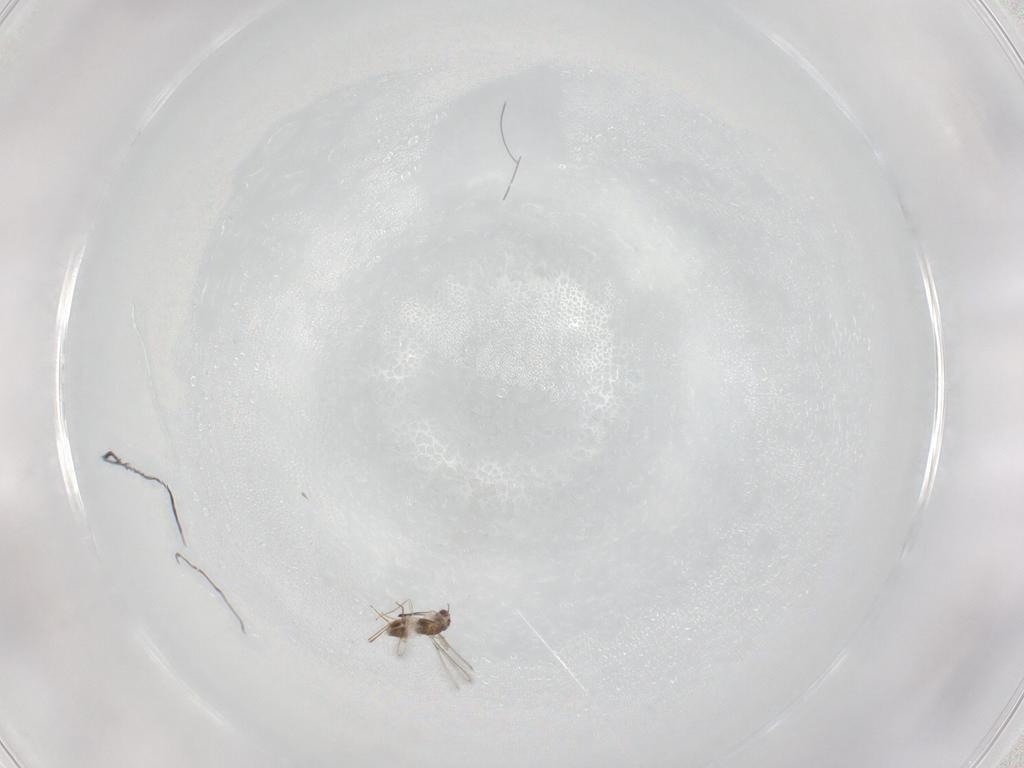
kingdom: Animalia
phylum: Arthropoda
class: Insecta
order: Hymenoptera
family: Mymaridae
